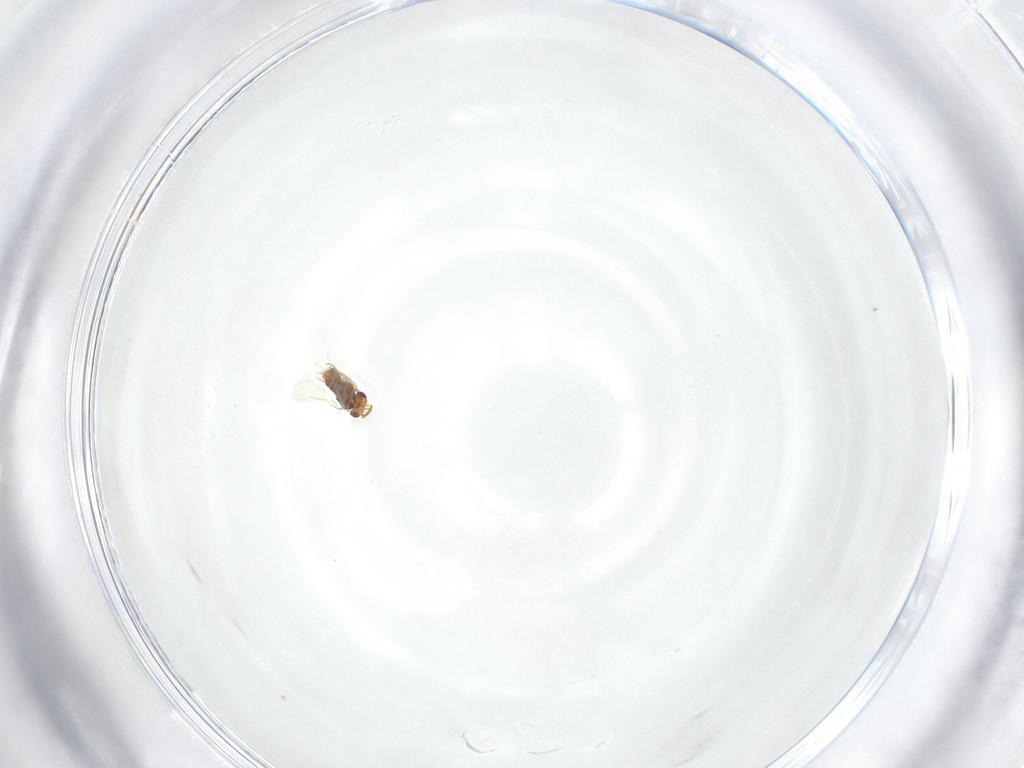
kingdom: Animalia
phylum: Arthropoda
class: Insecta
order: Hymenoptera
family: Aphelinidae
